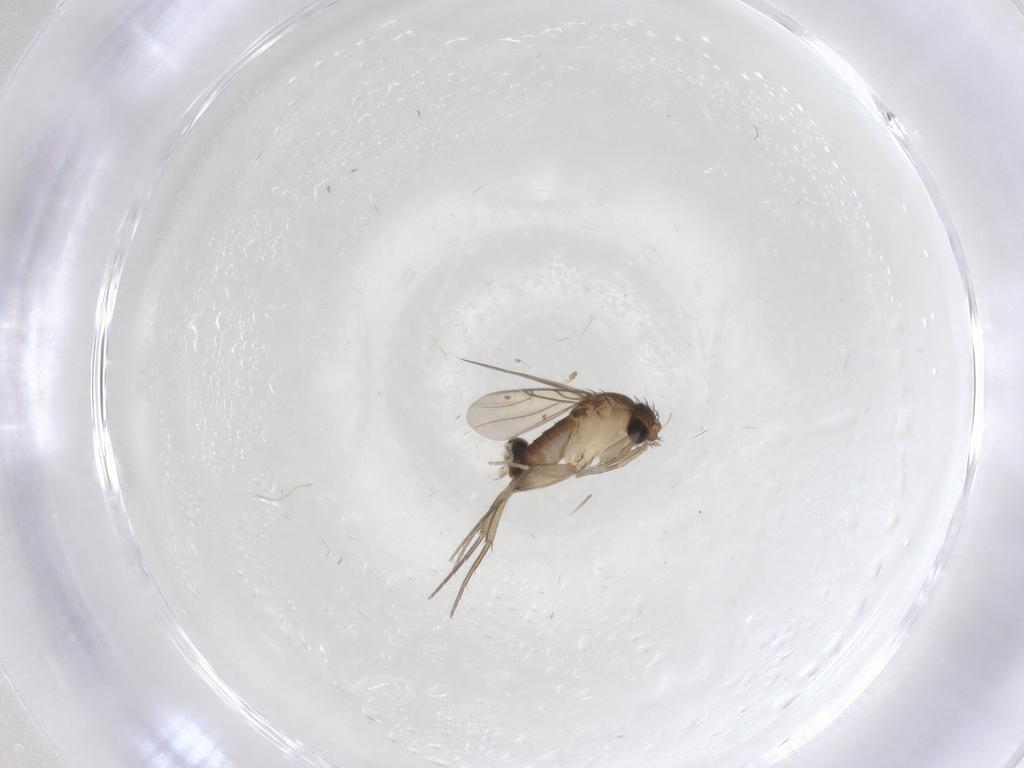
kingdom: Animalia
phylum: Arthropoda
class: Insecta
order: Diptera
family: Phoridae
